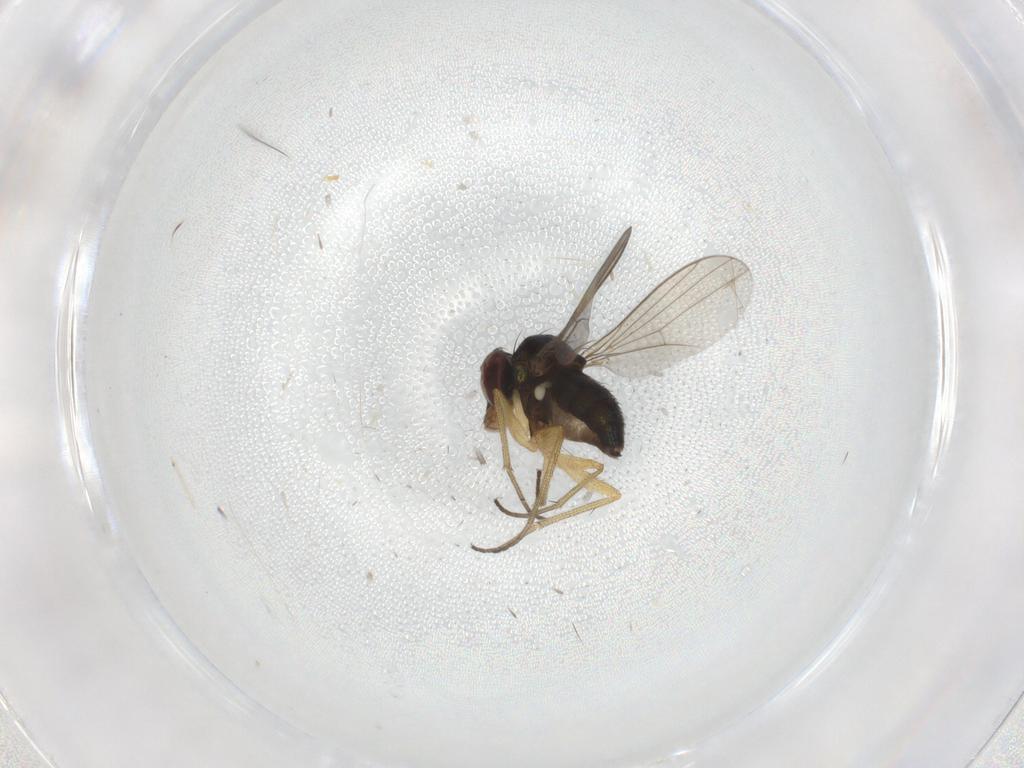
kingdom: Animalia
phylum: Arthropoda
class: Insecta
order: Diptera
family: Dolichopodidae
